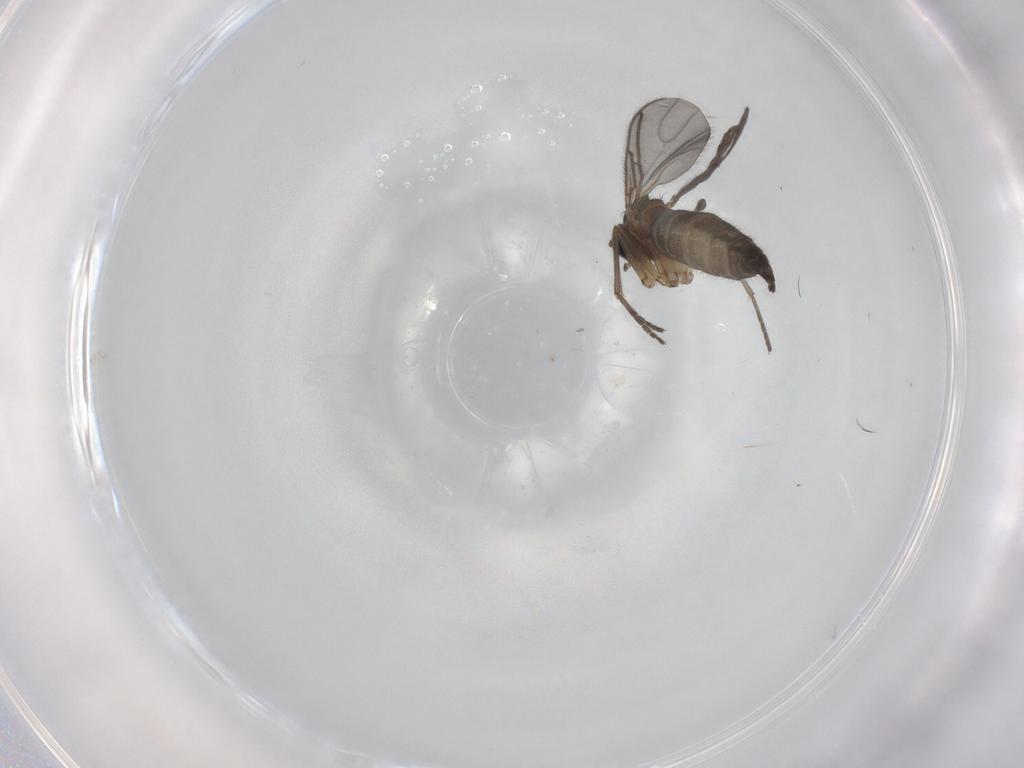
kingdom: Animalia
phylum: Arthropoda
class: Insecta
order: Diptera
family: Sciaridae
